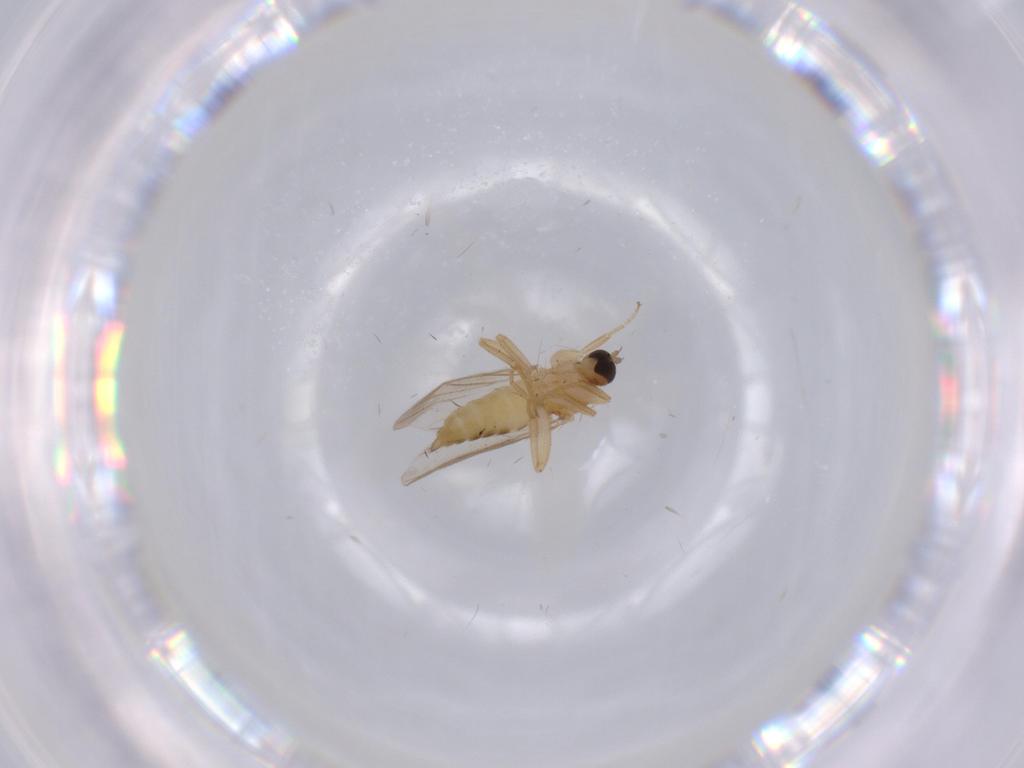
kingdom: Animalia
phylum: Arthropoda
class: Insecta
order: Diptera
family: Hybotidae
